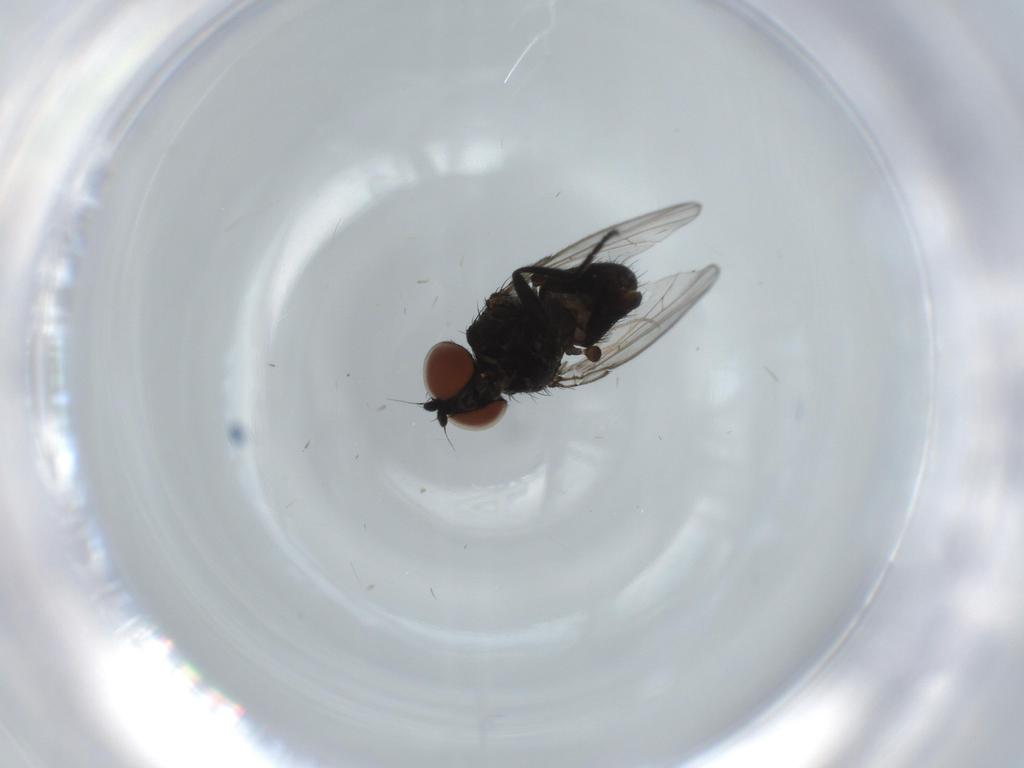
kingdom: Animalia
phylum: Arthropoda
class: Insecta
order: Diptera
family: Milichiidae
